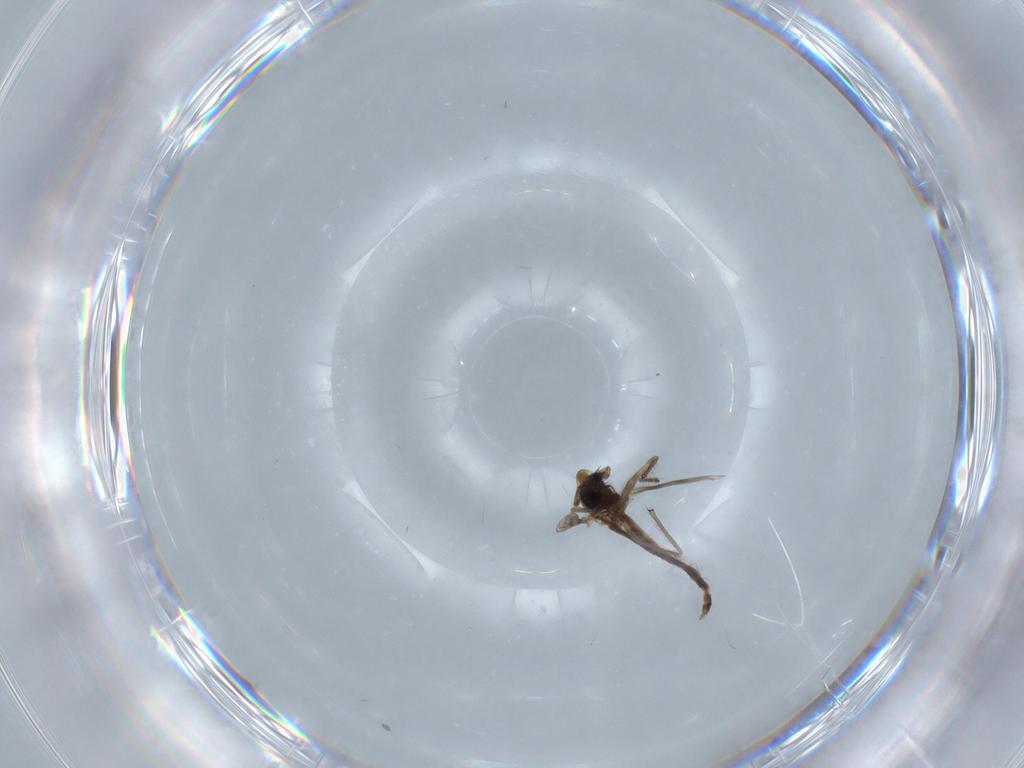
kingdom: Animalia
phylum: Arthropoda
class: Insecta
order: Diptera
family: Chironomidae
